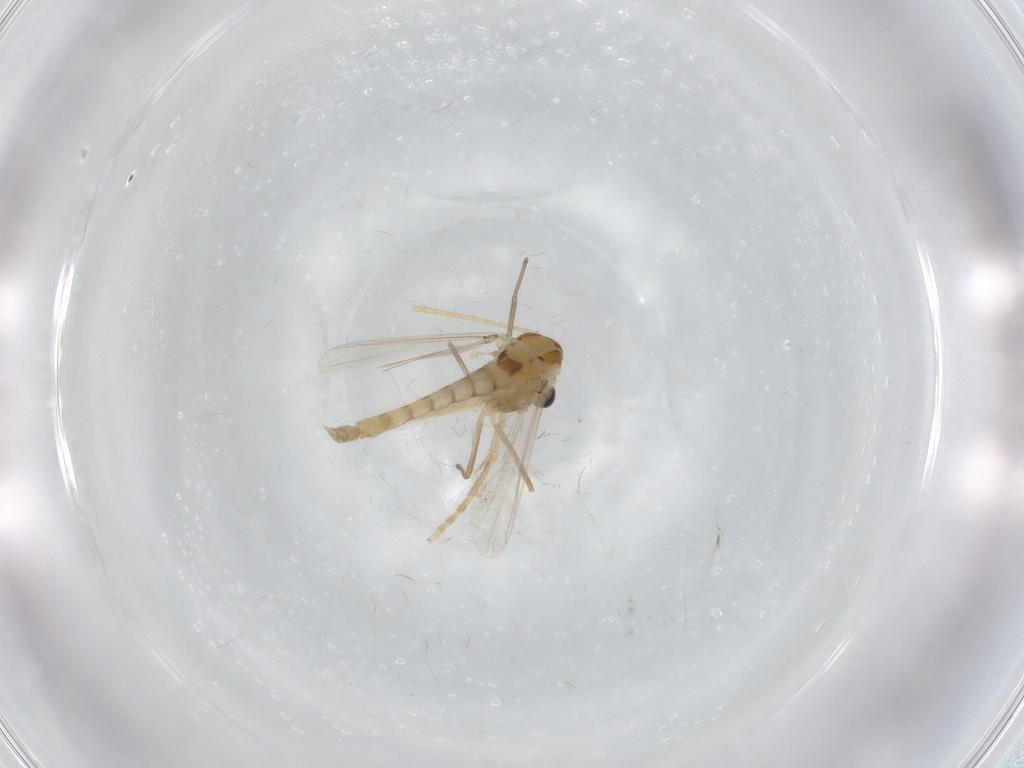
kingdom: Animalia
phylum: Arthropoda
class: Insecta
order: Diptera
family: Chironomidae
